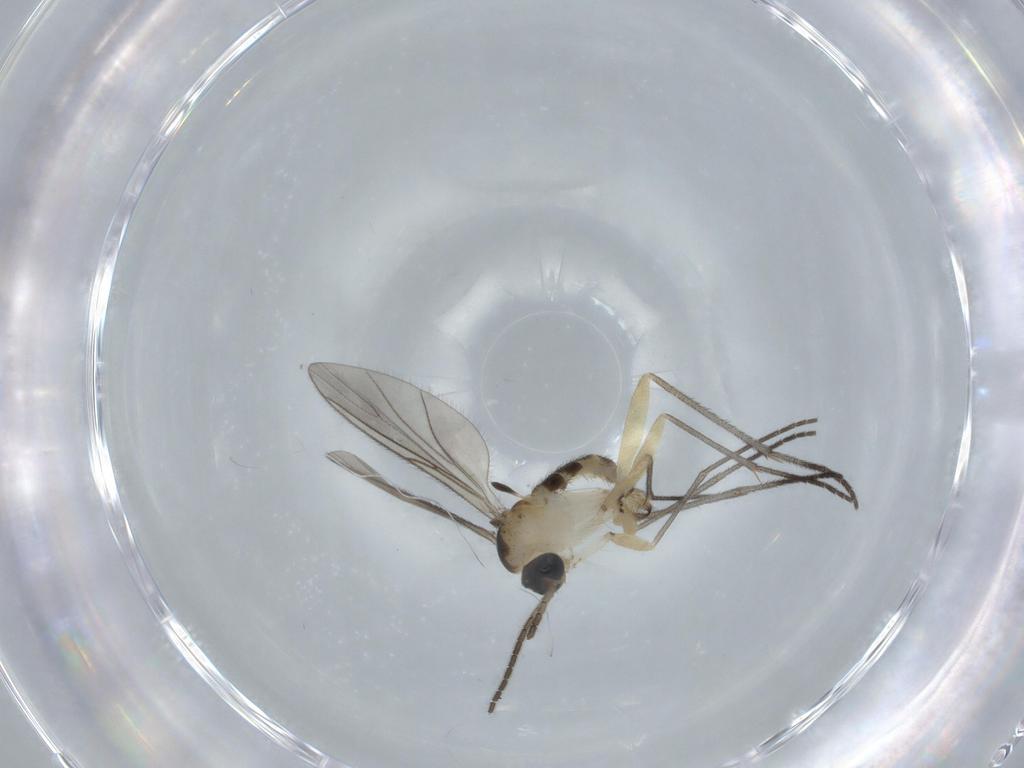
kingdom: Animalia
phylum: Arthropoda
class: Insecta
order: Diptera
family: Sciaridae
